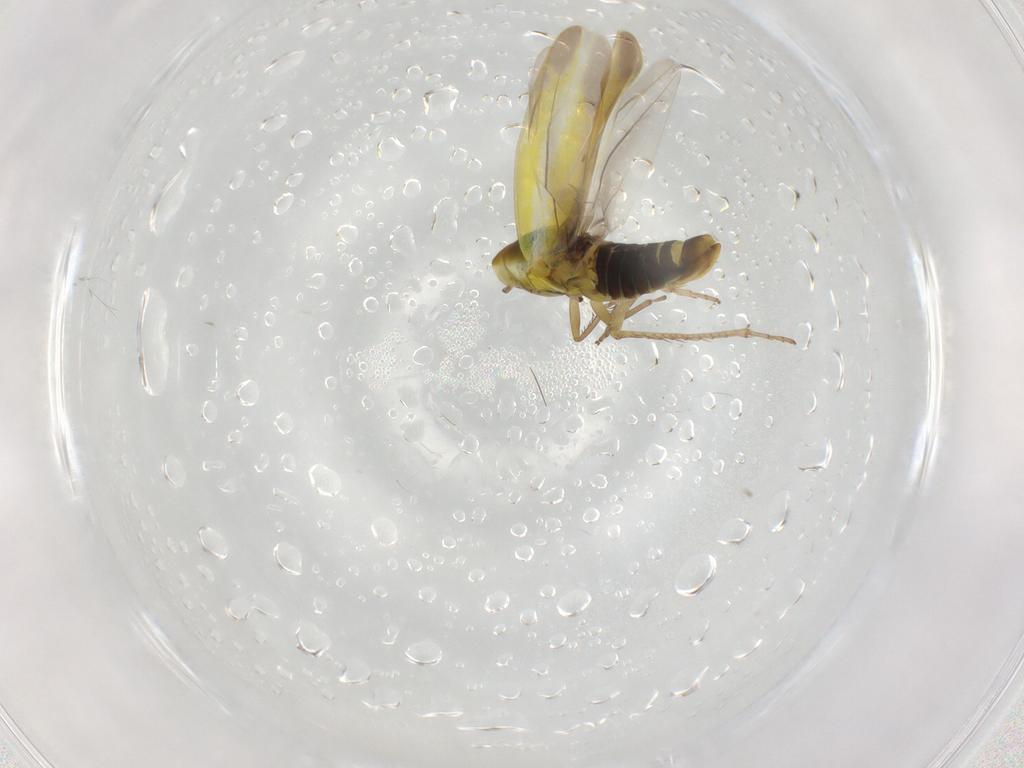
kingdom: Animalia
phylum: Arthropoda
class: Insecta
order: Hemiptera
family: Cicadellidae
